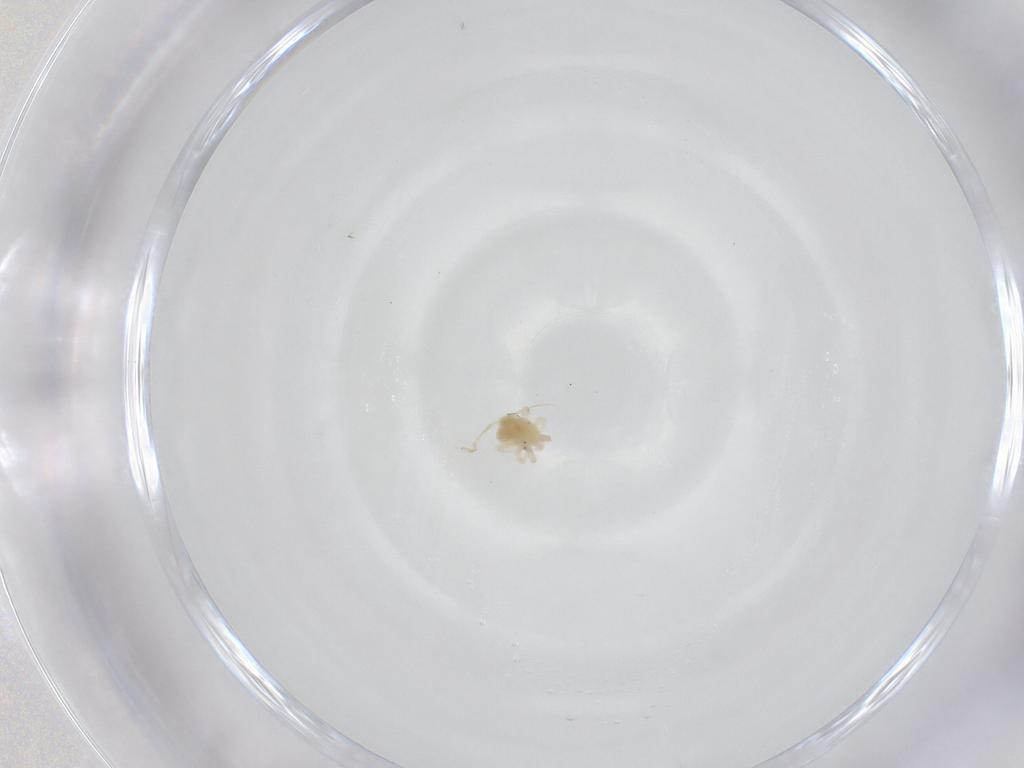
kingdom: Animalia
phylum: Arthropoda
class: Arachnida
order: Trombidiformes
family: Anystidae
